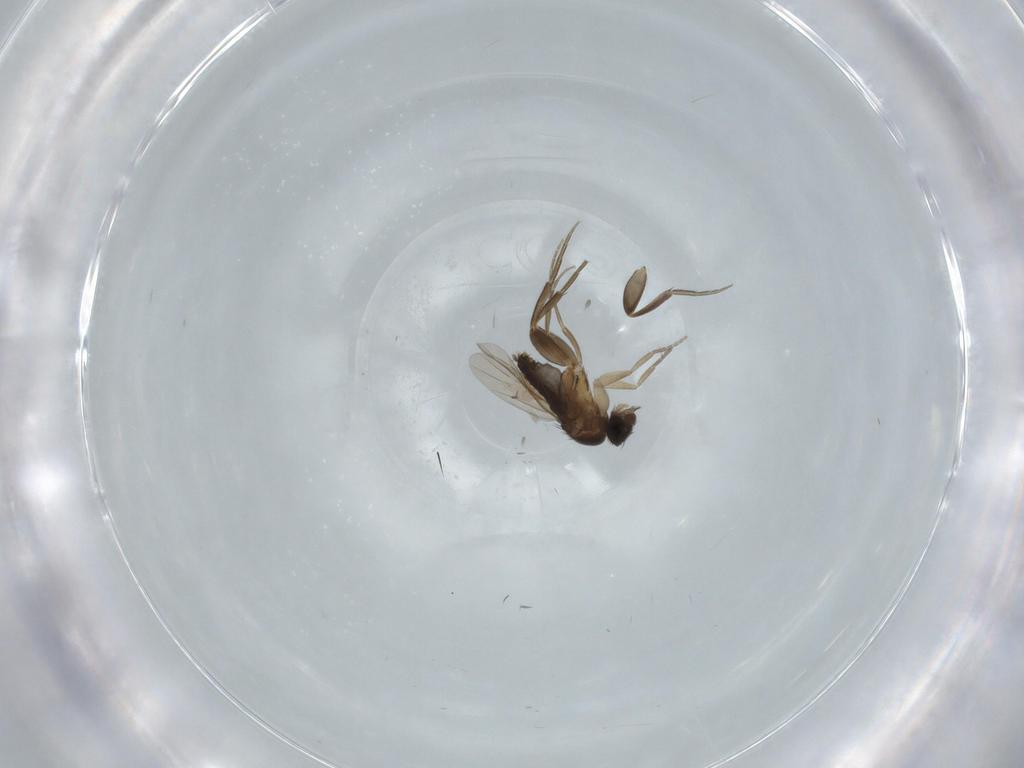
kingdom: Animalia
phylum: Arthropoda
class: Insecta
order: Diptera
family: Phoridae
